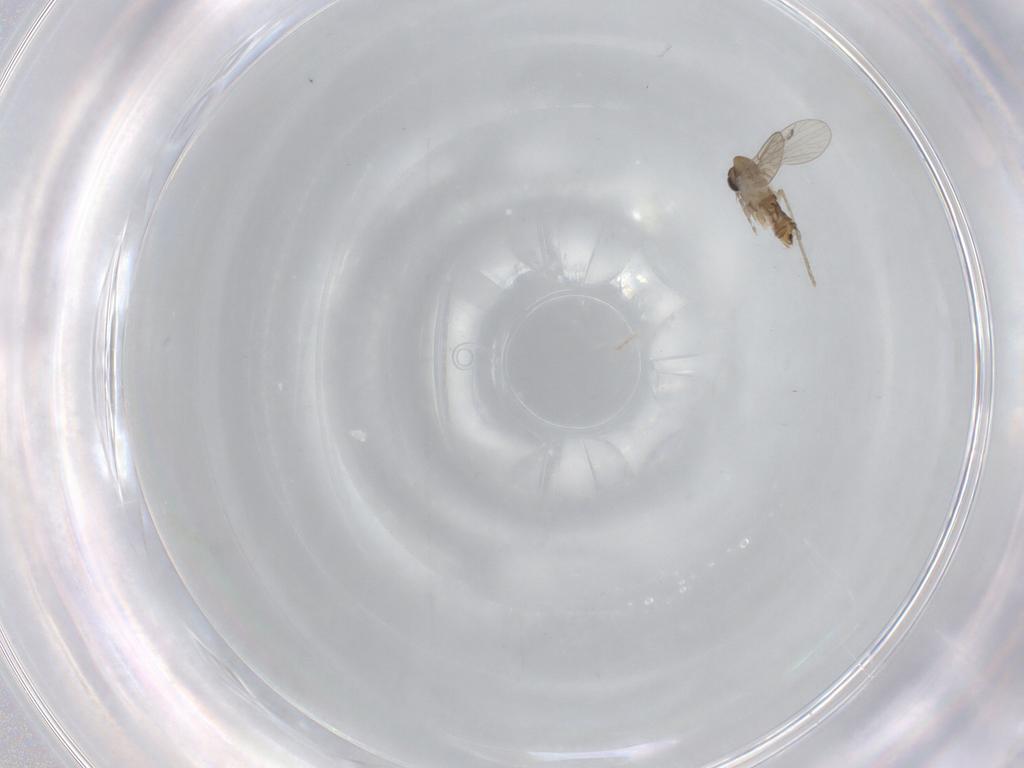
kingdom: Animalia
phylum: Arthropoda
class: Insecta
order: Diptera
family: Psychodidae
